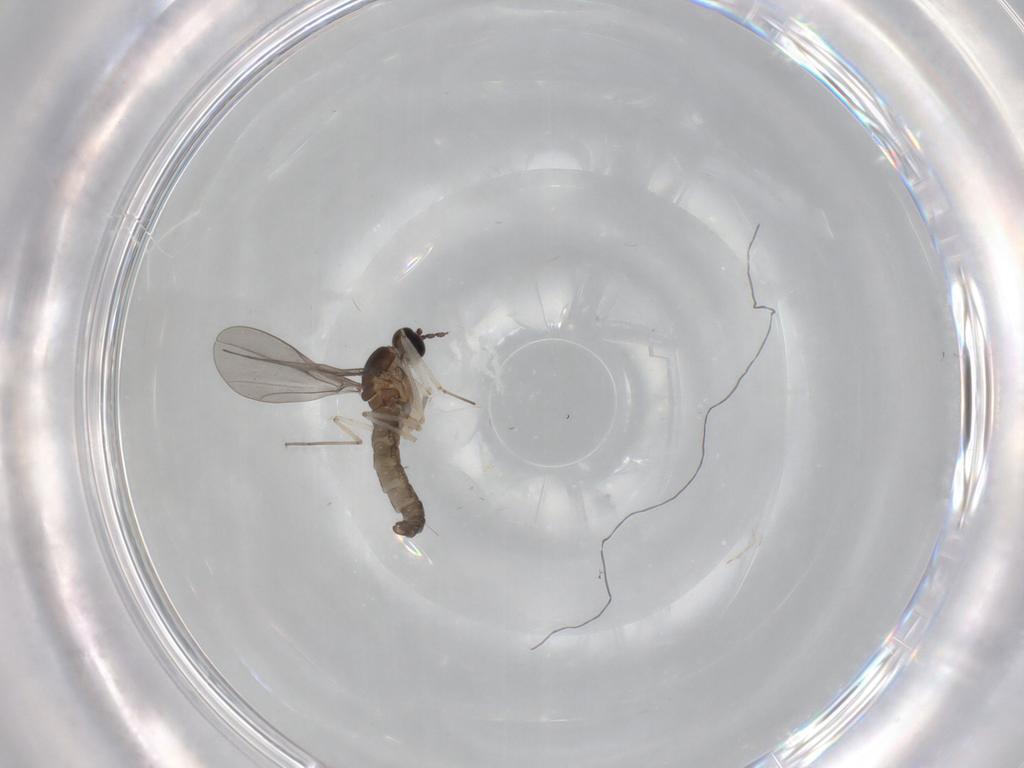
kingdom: Animalia
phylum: Arthropoda
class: Insecta
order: Diptera
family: Cecidomyiidae
